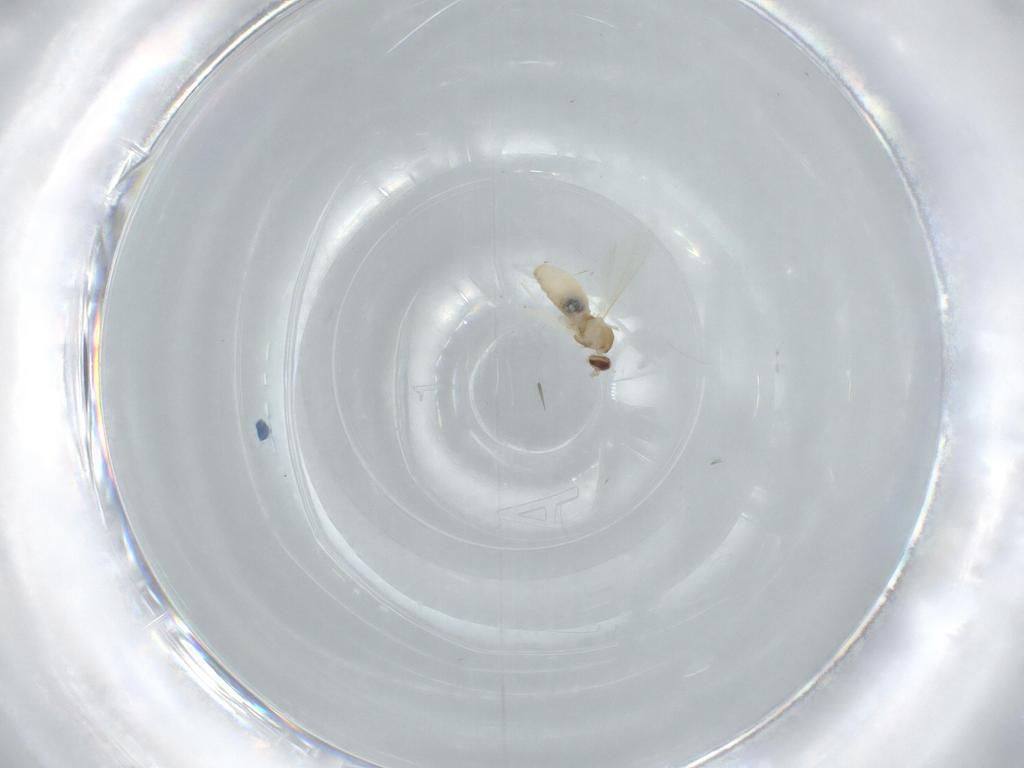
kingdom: Animalia
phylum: Arthropoda
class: Insecta
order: Diptera
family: Cecidomyiidae
